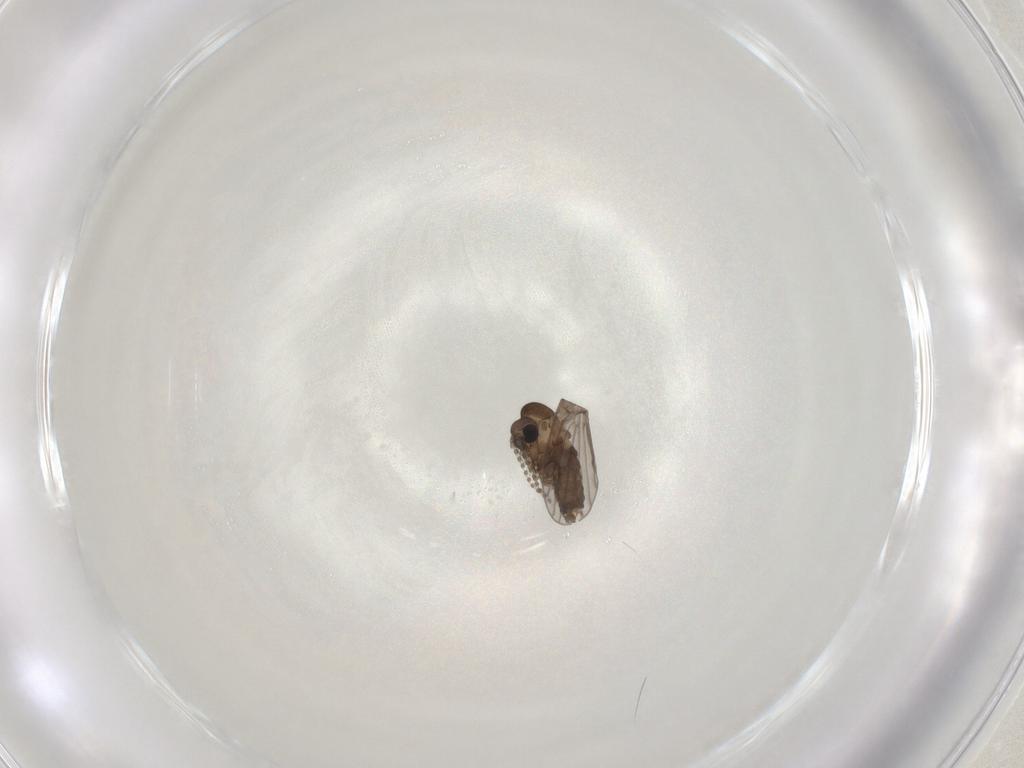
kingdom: Animalia
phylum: Arthropoda
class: Insecta
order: Diptera
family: Psychodidae
